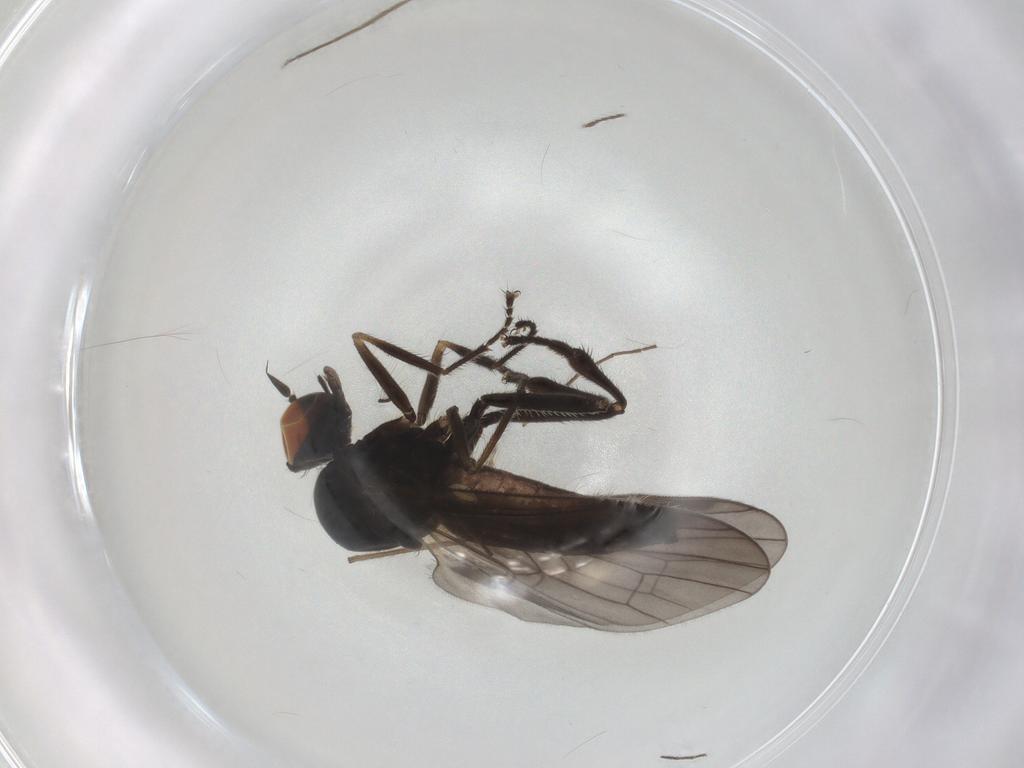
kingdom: Animalia
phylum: Arthropoda
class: Insecta
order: Diptera
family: Hybotidae
